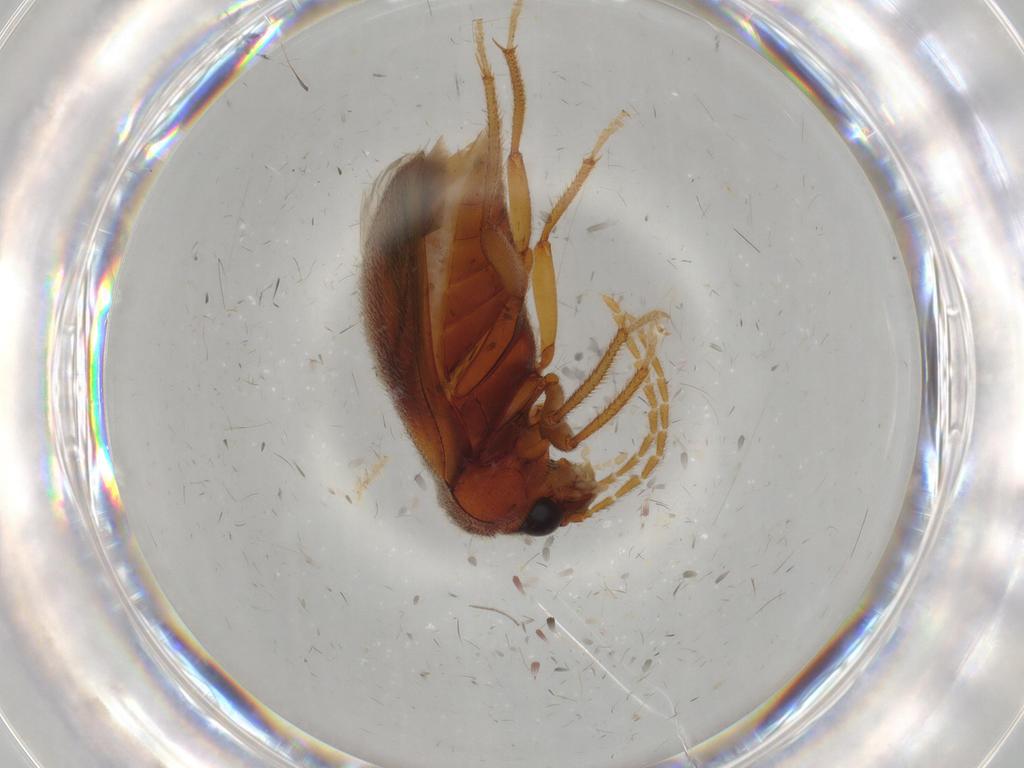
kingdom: Animalia
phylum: Arthropoda
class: Insecta
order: Coleoptera
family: Ptilodactylidae
